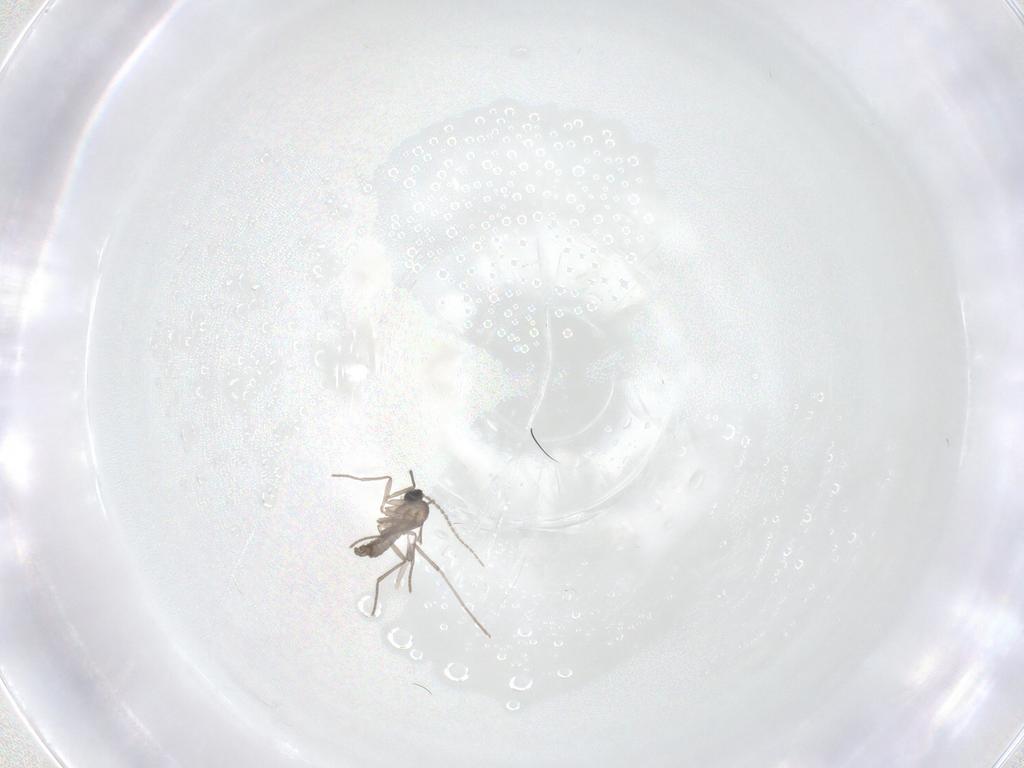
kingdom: Animalia
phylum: Arthropoda
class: Insecta
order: Diptera
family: Chironomidae
